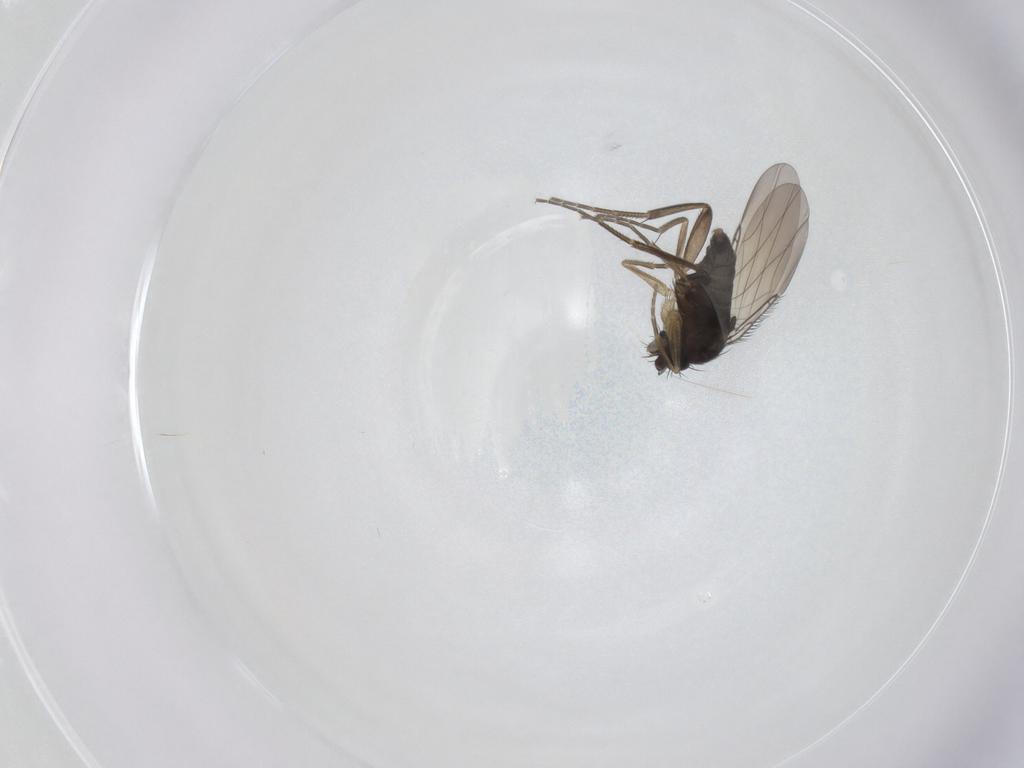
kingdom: Animalia
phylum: Arthropoda
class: Insecta
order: Diptera
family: Phoridae
